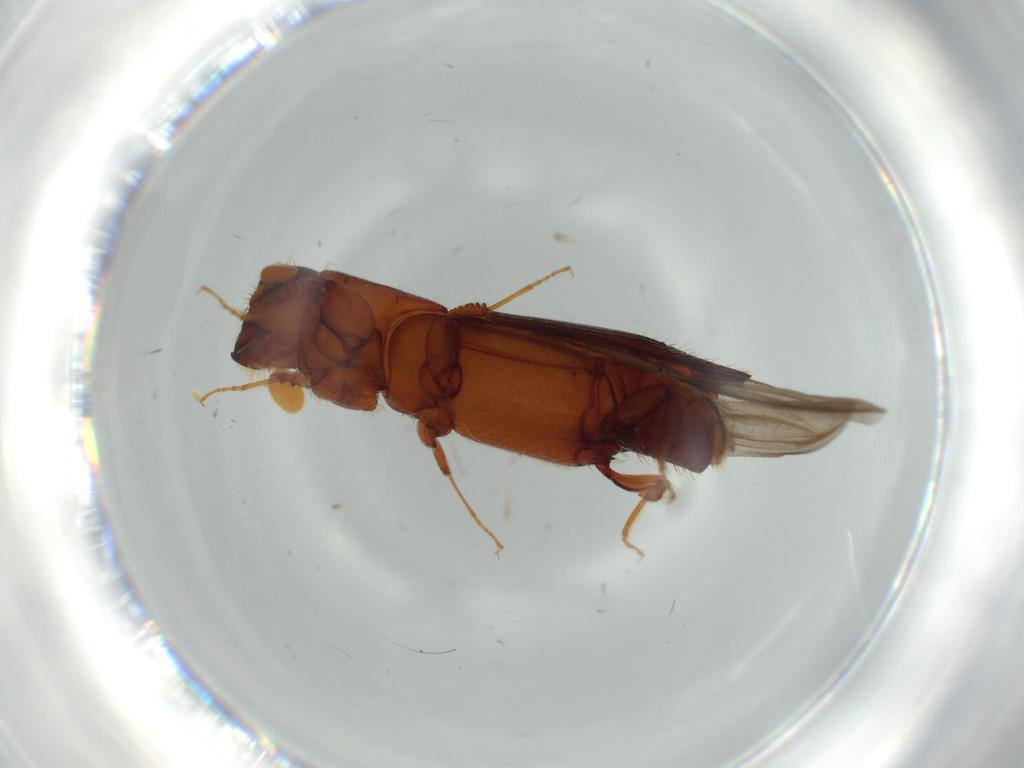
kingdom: Animalia
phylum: Arthropoda
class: Insecta
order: Coleoptera
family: Curculionidae
